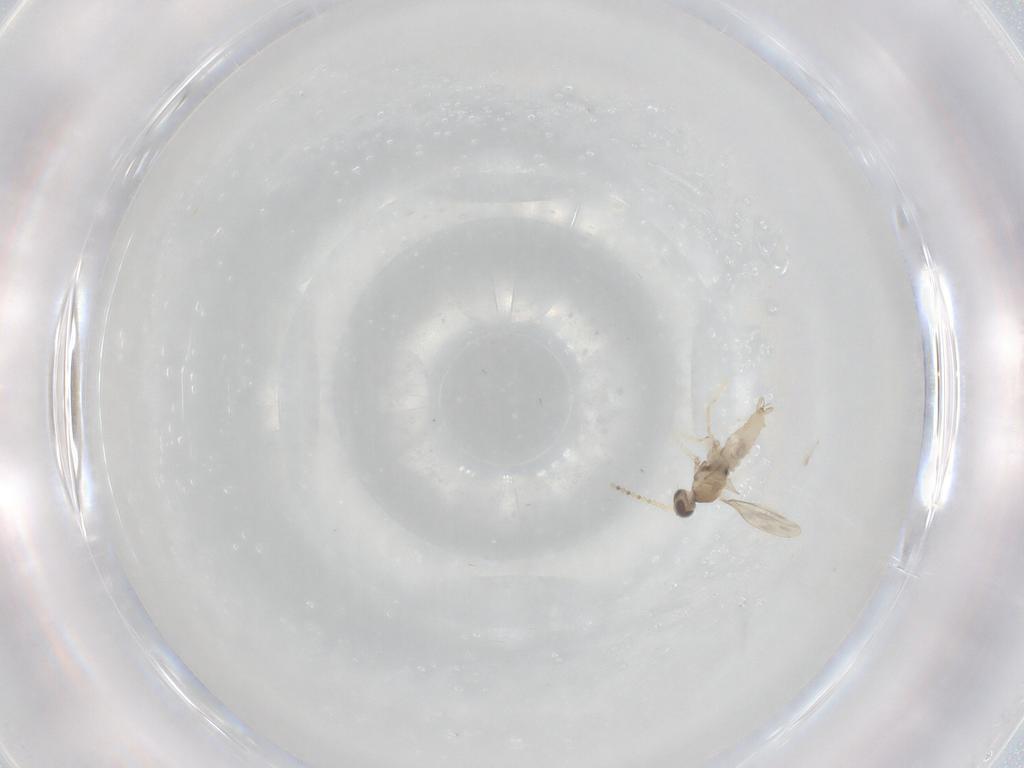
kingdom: Animalia
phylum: Arthropoda
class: Insecta
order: Diptera
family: Cecidomyiidae
